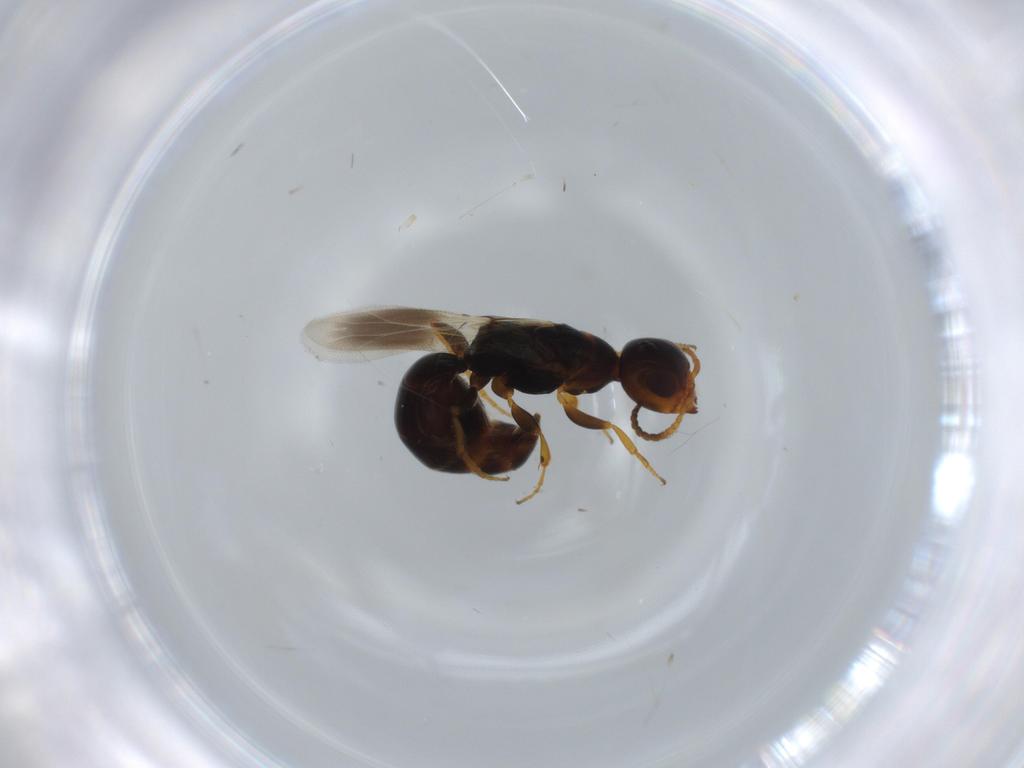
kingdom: Animalia
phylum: Arthropoda
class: Insecta
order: Hymenoptera
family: Bethylidae
